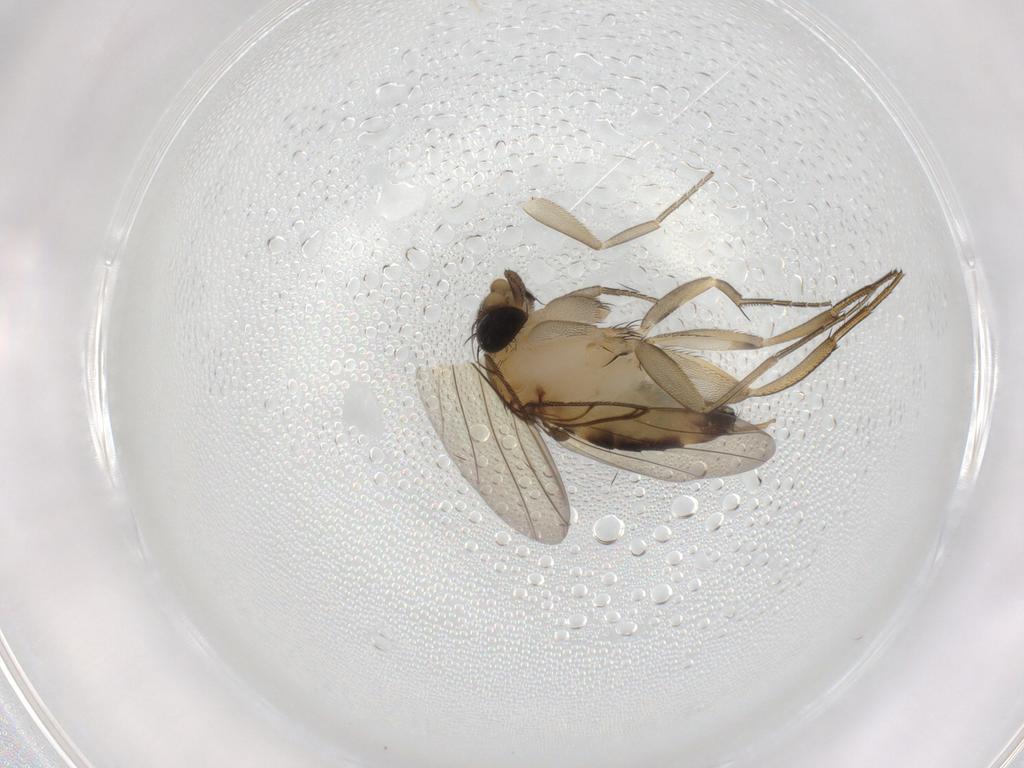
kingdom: Animalia
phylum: Arthropoda
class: Insecta
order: Diptera
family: Phoridae
